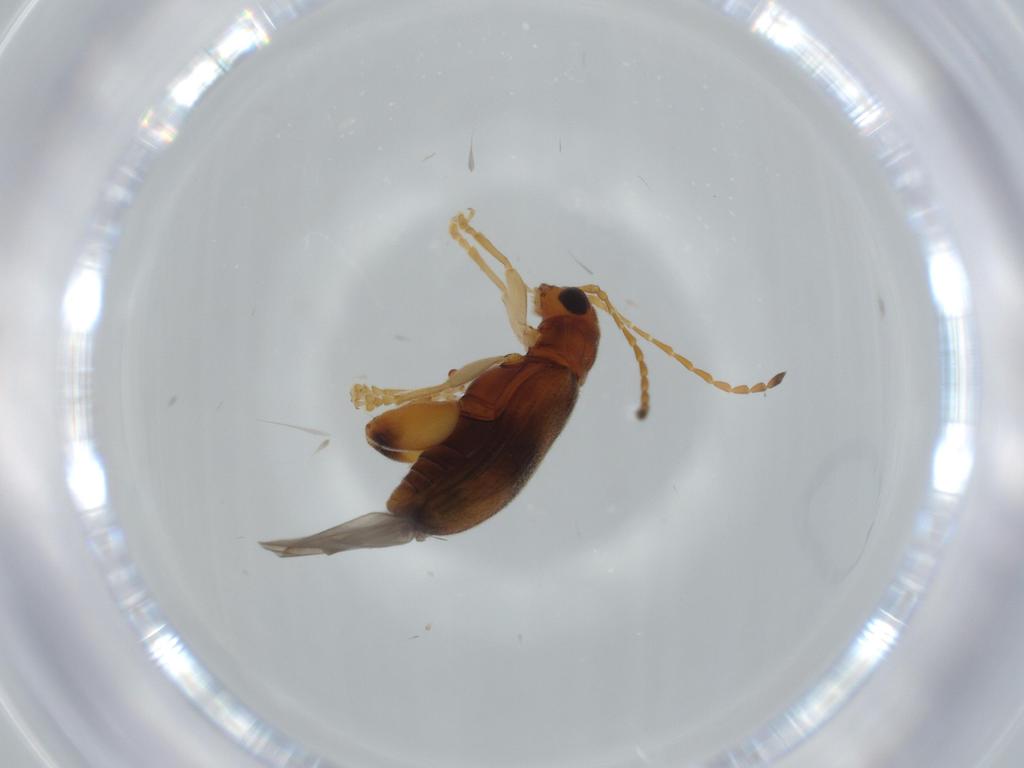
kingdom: Animalia
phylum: Arthropoda
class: Insecta
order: Coleoptera
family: Chrysomelidae
